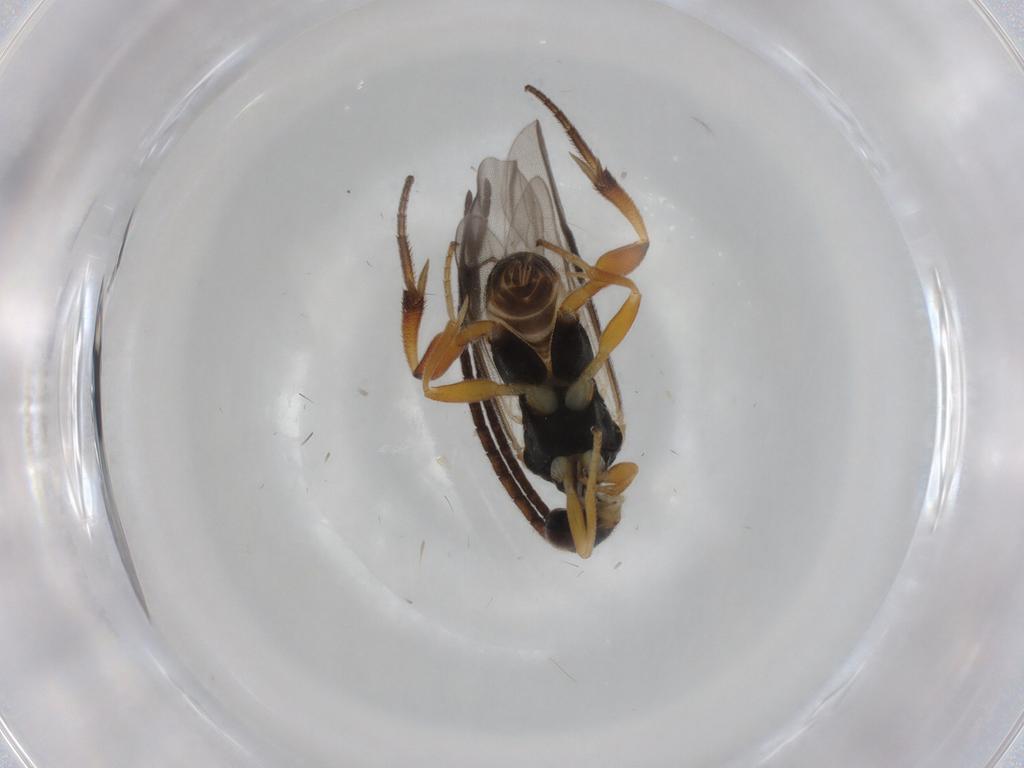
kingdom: Animalia
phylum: Arthropoda
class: Insecta
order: Hymenoptera
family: Braconidae
